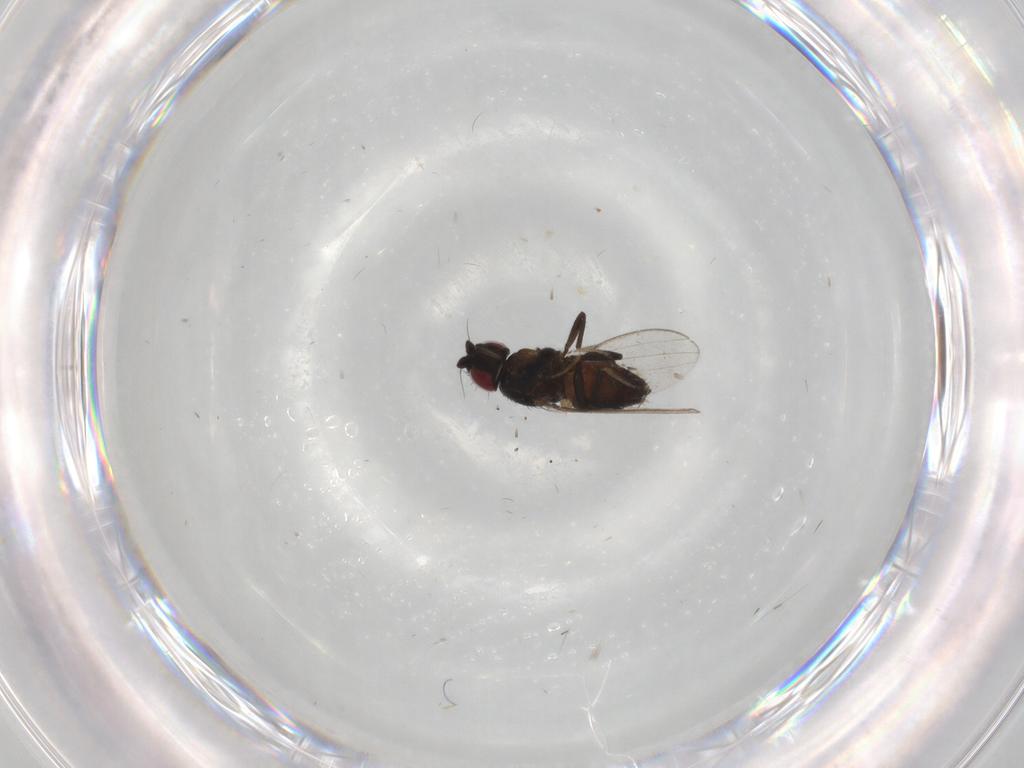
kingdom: Animalia
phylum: Arthropoda
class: Insecta
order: Diptera
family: Milichiidae
